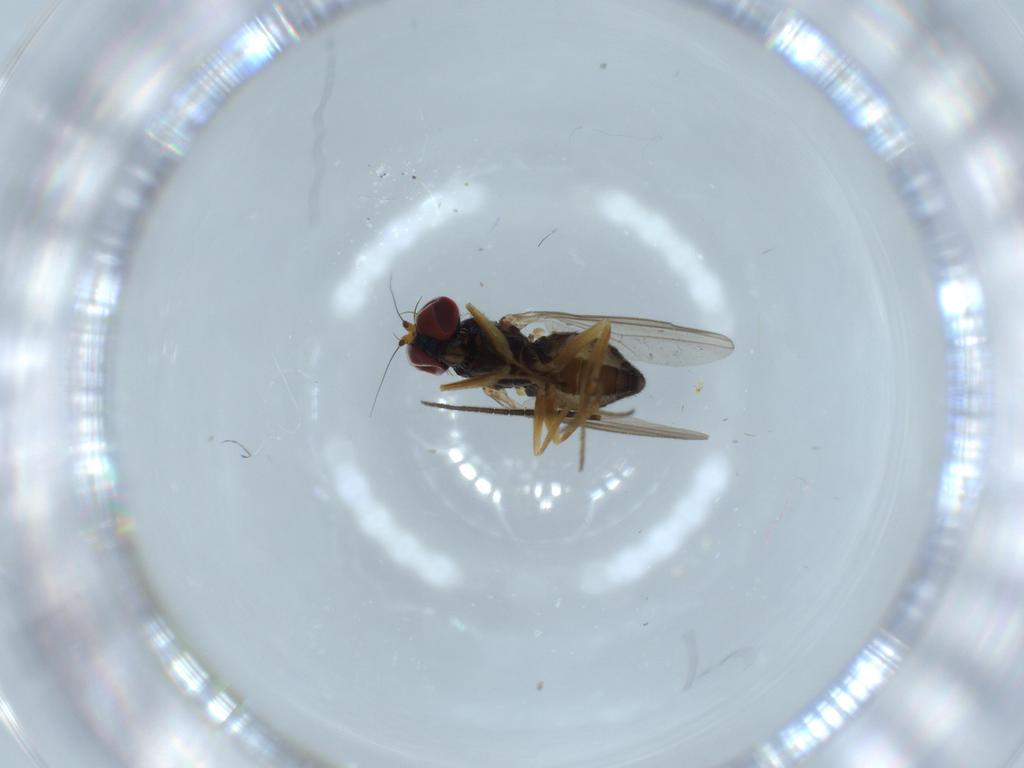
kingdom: Animalia
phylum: Arthropoda
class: Insecta
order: Diptera
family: Sciaridae
